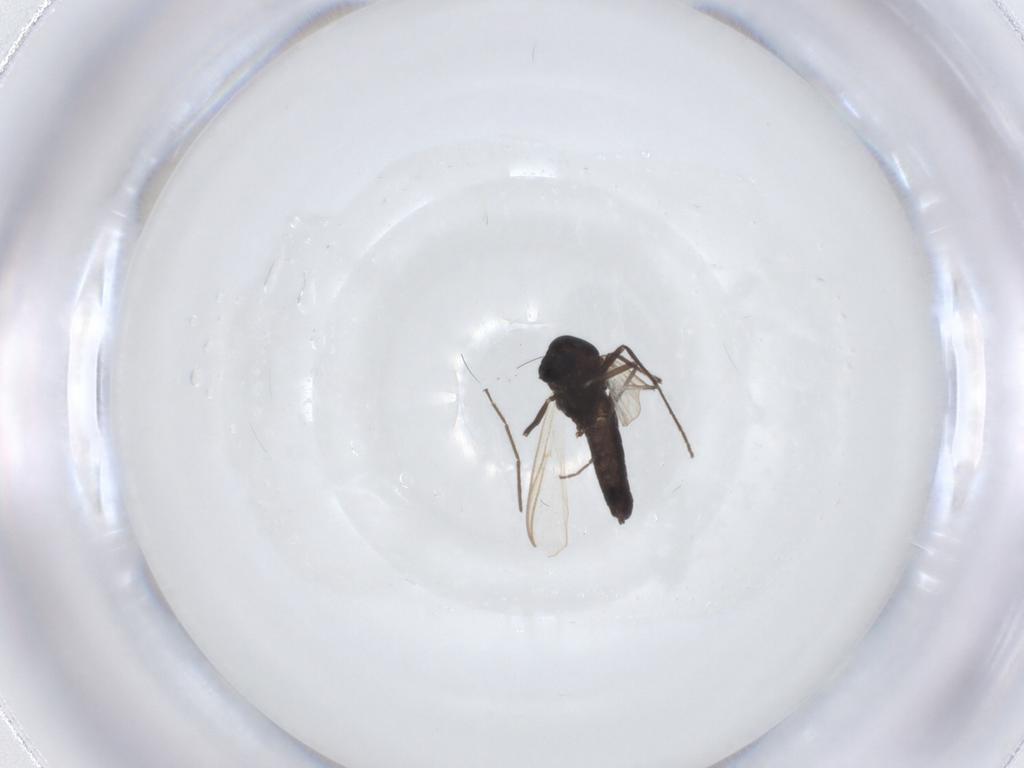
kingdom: Animalia
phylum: Arthropoda
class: Insecta
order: Diptera
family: Chironomidae
